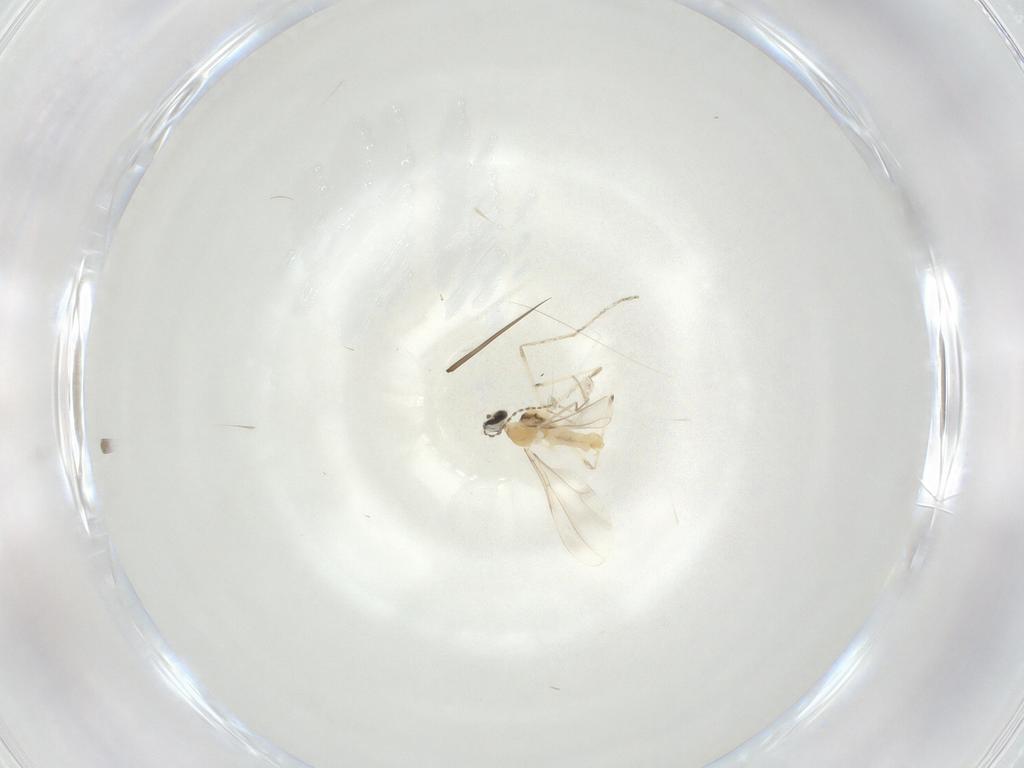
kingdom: Animalia
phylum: Arthropoda
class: Insecta
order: Diptera
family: Cecidomyiidae
